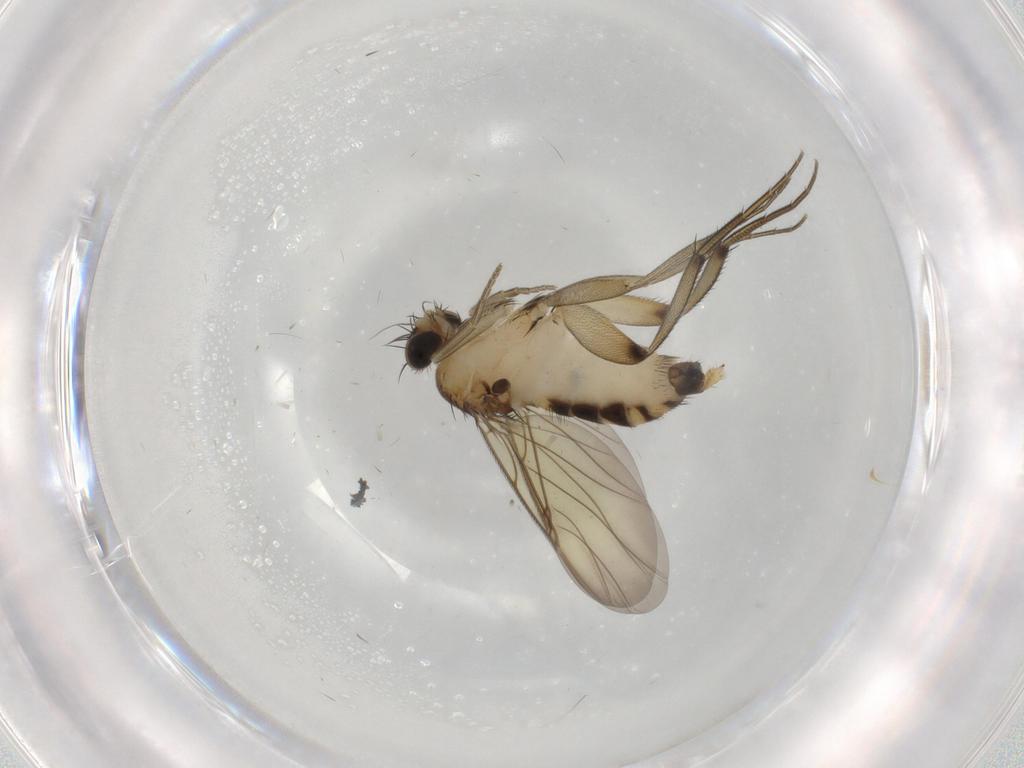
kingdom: Animalia
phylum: Arthropoda
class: Insecta
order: Diptera
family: Phoridae
